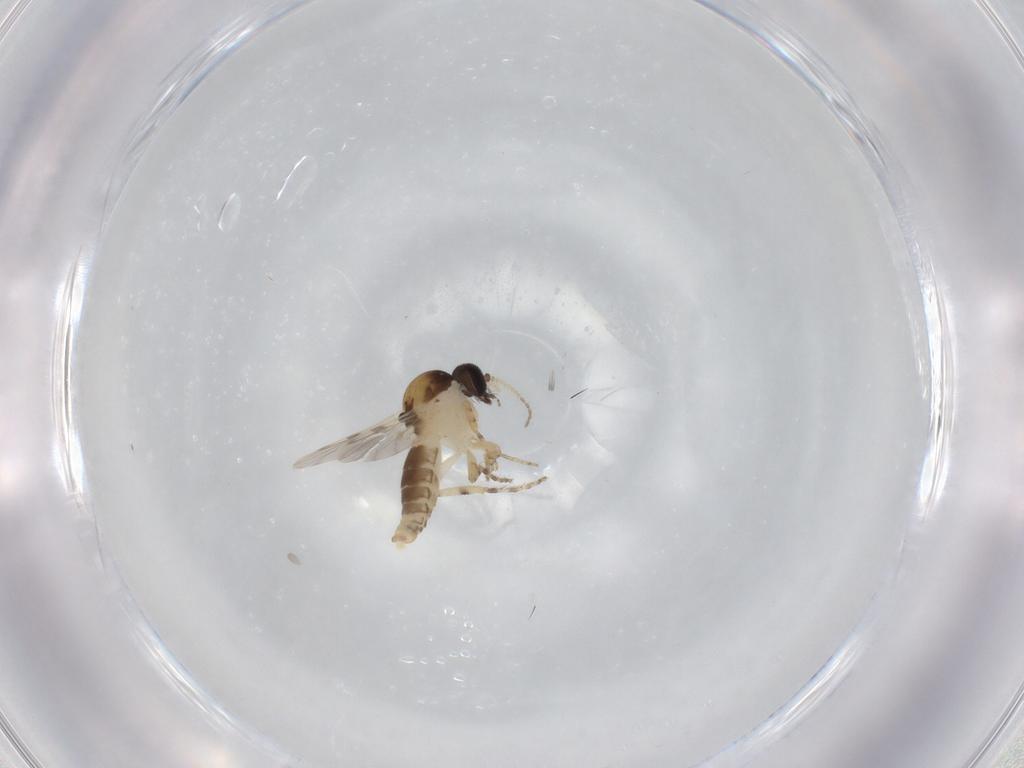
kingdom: Animalia
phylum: Arthropoda
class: Insecta
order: Diptera
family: Ceratopogonidae
